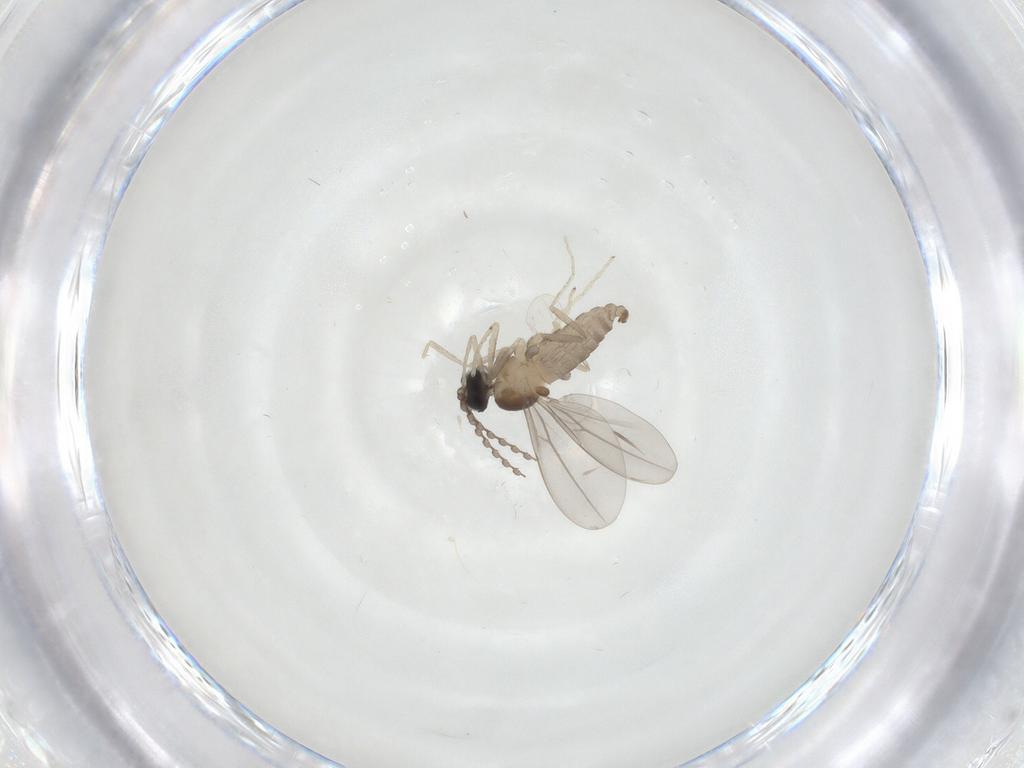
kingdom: Animalia
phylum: Arthropoda
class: Insecta
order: Diptera
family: Cecidomyiidae
